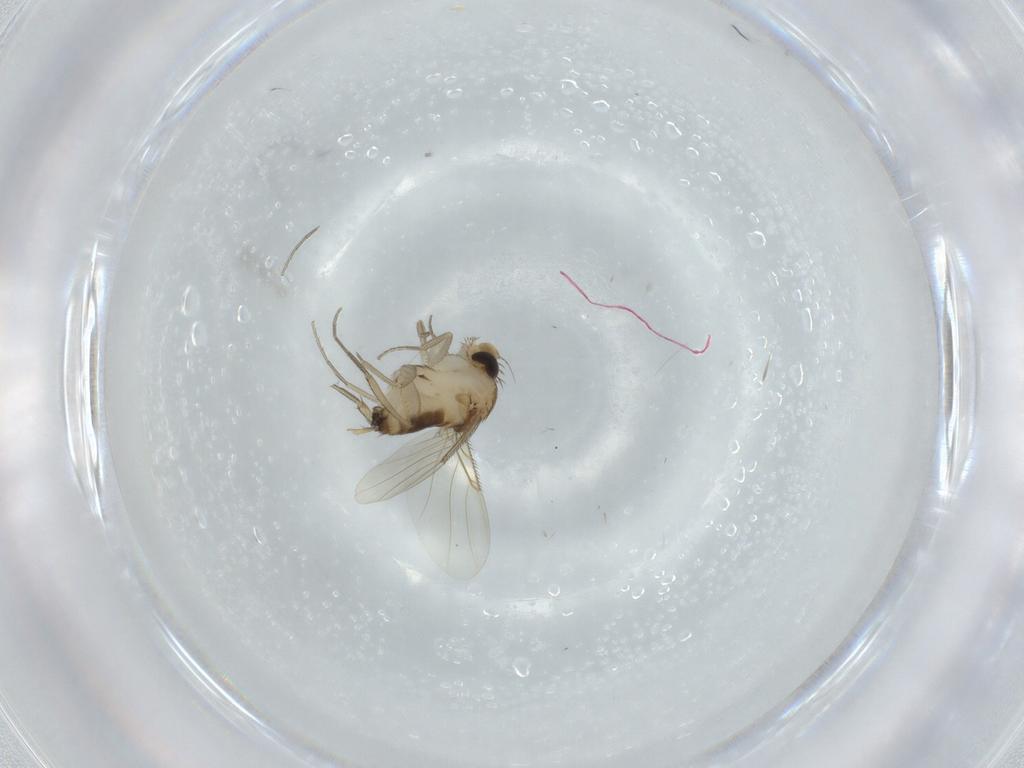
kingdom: Animalia
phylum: Arthropoda
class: Insecta
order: Diptera
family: Phoridae
